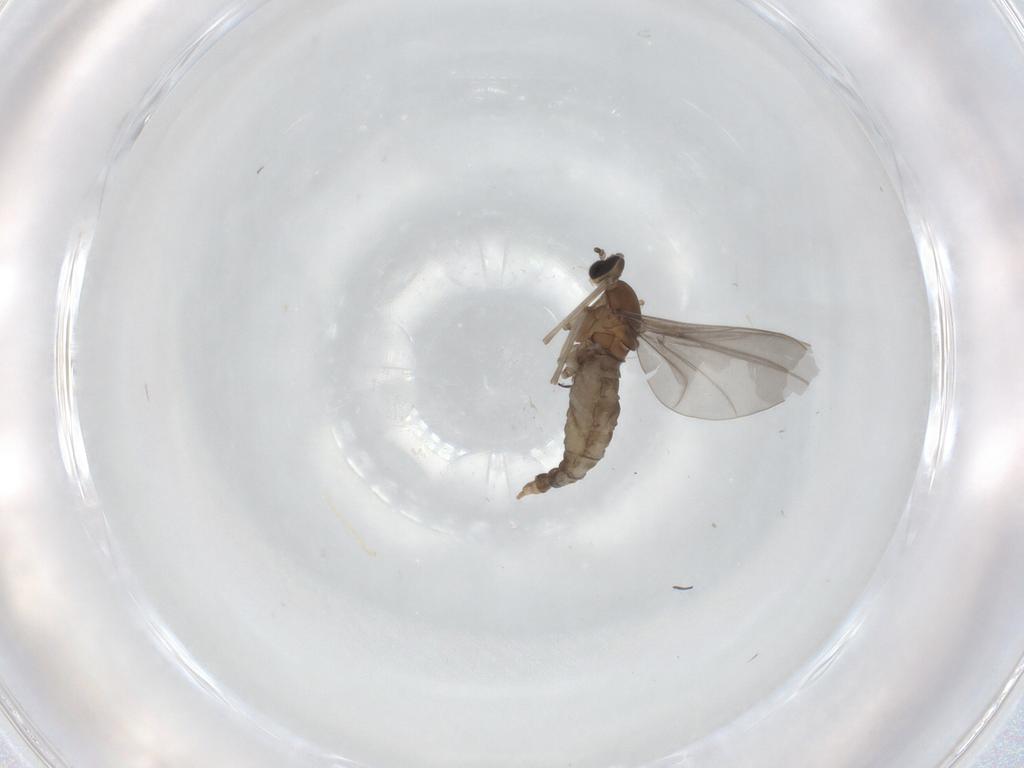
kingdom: Animalia
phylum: Arthropoda
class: Insecta
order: Diptera
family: Cecidomyiidae
